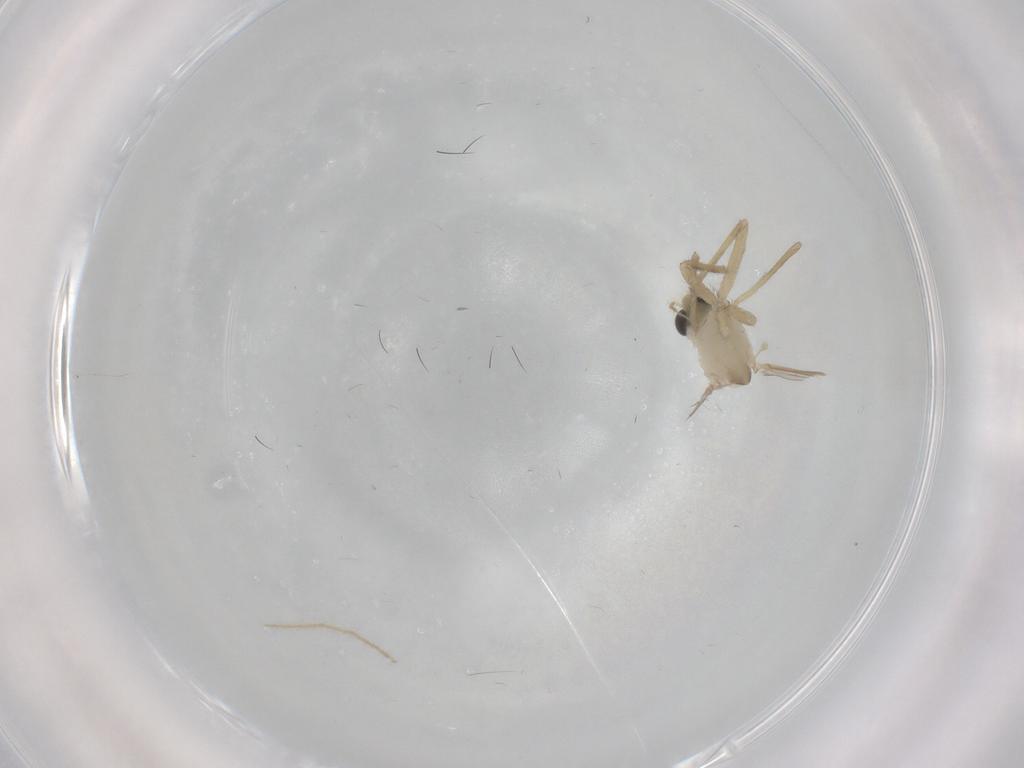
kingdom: Animalia
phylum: Arthropoda
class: Insecta
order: Diptera
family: Chironomidae
